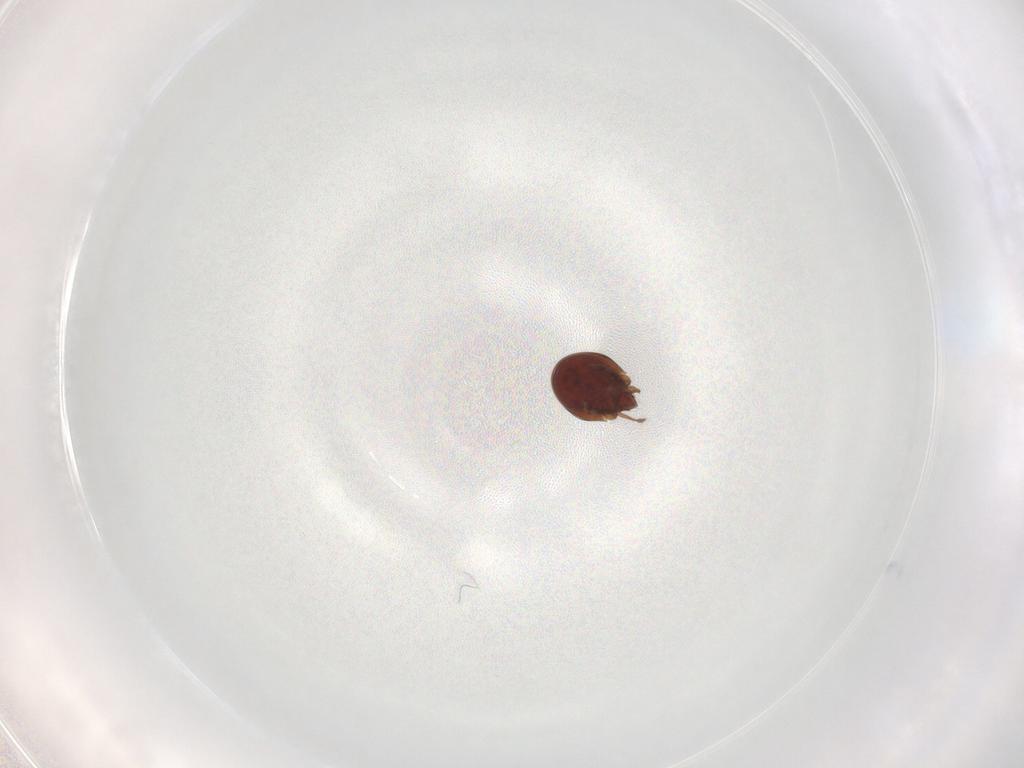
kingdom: Animalia
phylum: Arthropoda
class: Arachnida
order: Sarcoptiformes
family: Ceratozetidae
